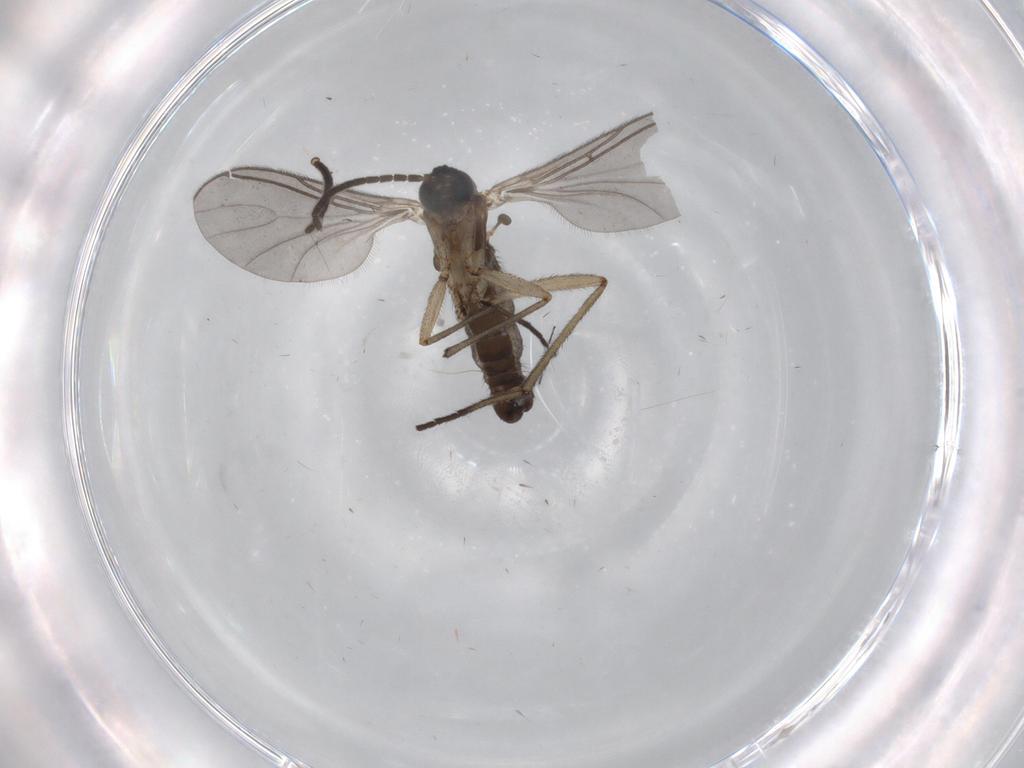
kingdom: Animalia
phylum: Arthropoda
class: Insecta
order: Diptera
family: Sciaridae
